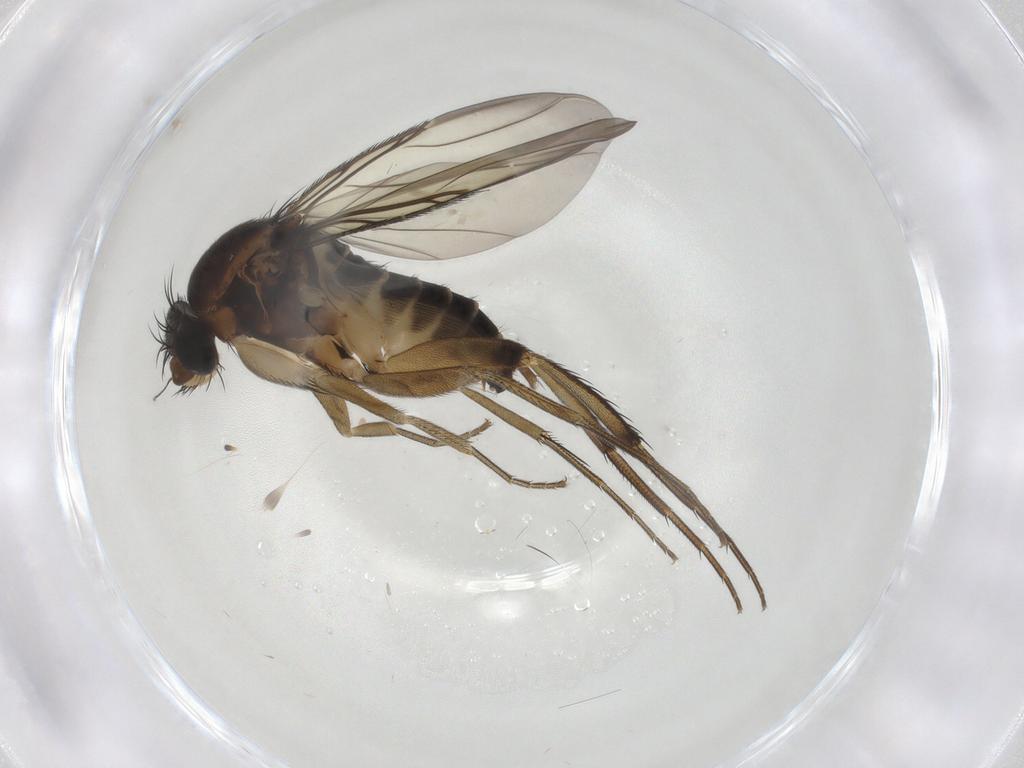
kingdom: Animalia
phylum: Arthropoda
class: Insecta
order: Diptera
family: Phoridae
